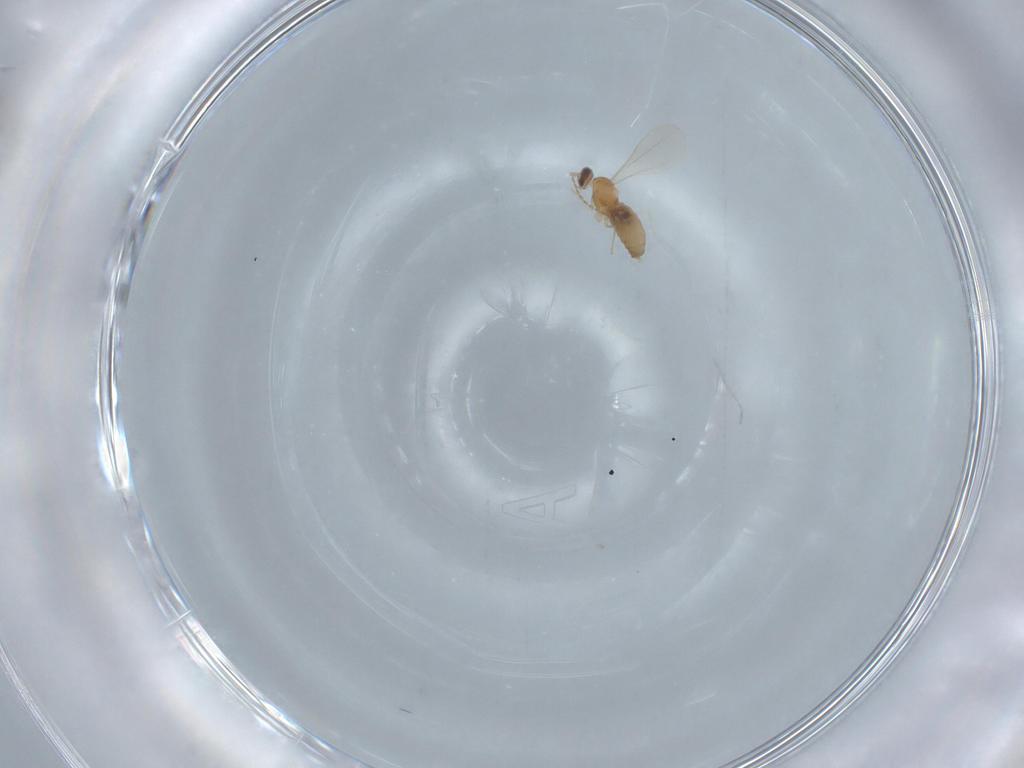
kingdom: Animalia
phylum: Arthropoda
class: Insecta
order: Diptera
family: Cecidomyiidae
